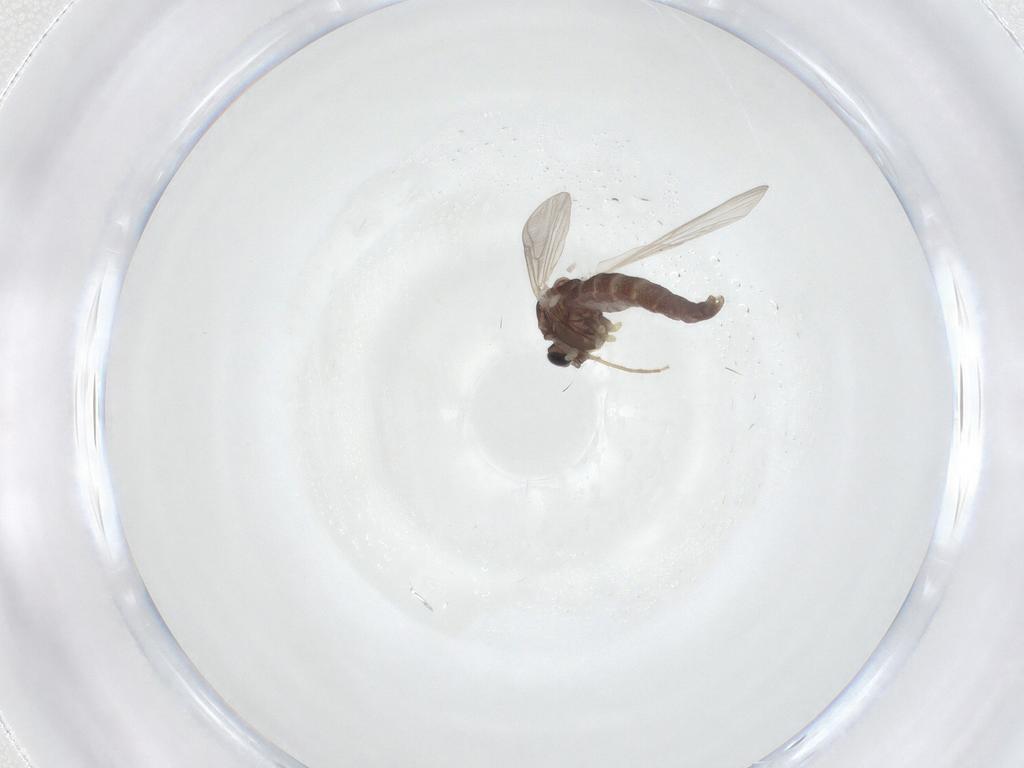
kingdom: Animalia
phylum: Arthropoda
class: Insecta
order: Diptera
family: Chironomidae
